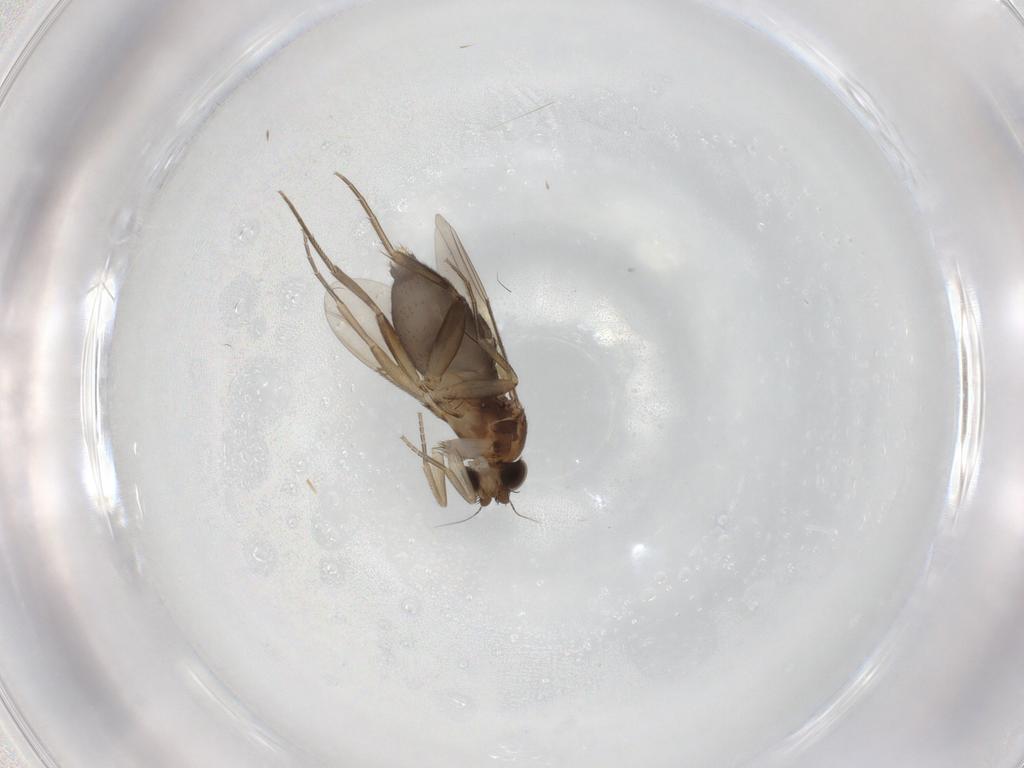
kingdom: Animalia
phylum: Arthropoda
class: Insecta
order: Diptera
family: Phoridae
